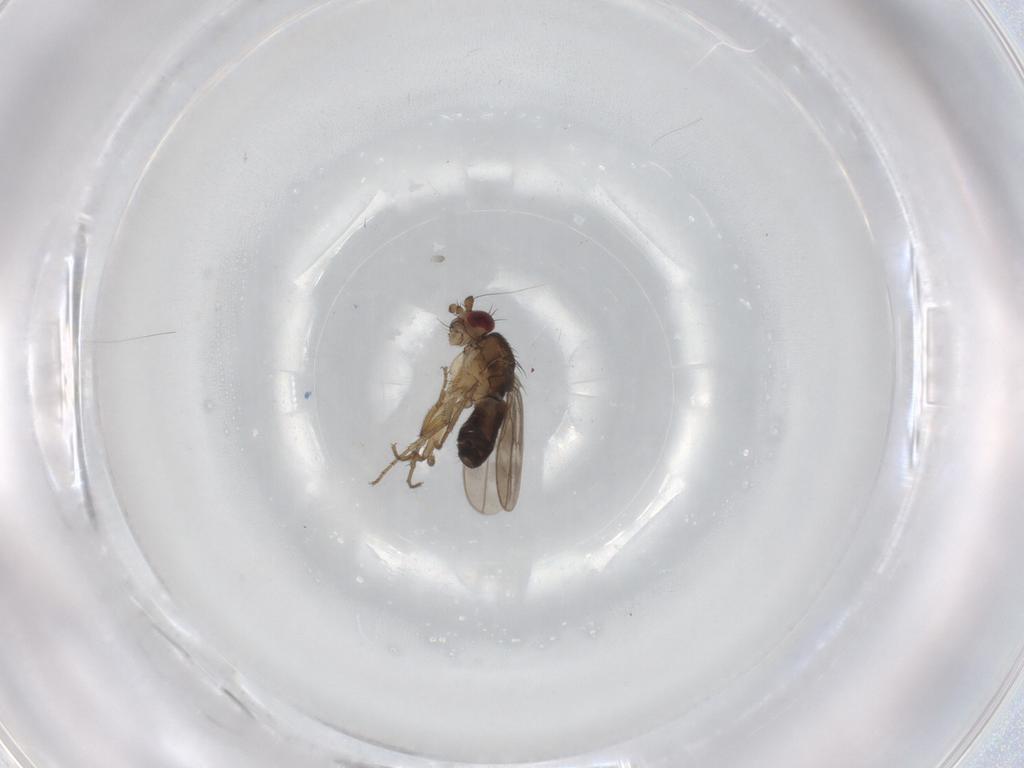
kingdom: Animalia
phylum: Arthropoda
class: Insecta
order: Diptera
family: Sphaeroceridae
